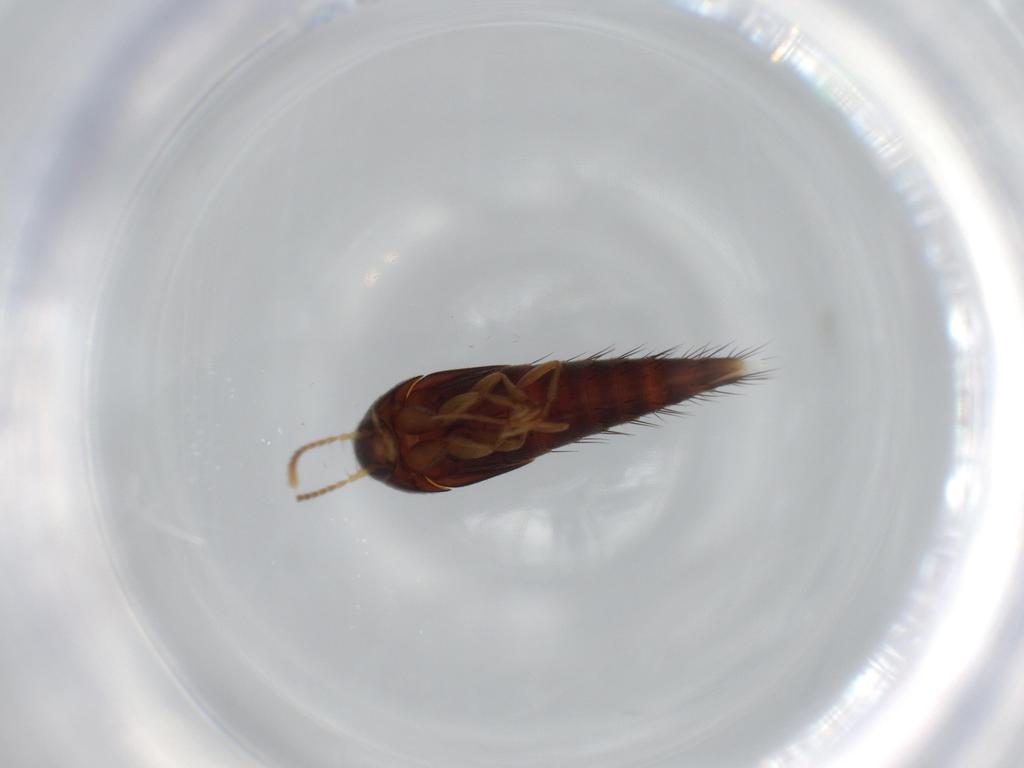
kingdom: Animalia
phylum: Arthropoda
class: Insecta
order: Coleoptera
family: Staphylinidae
